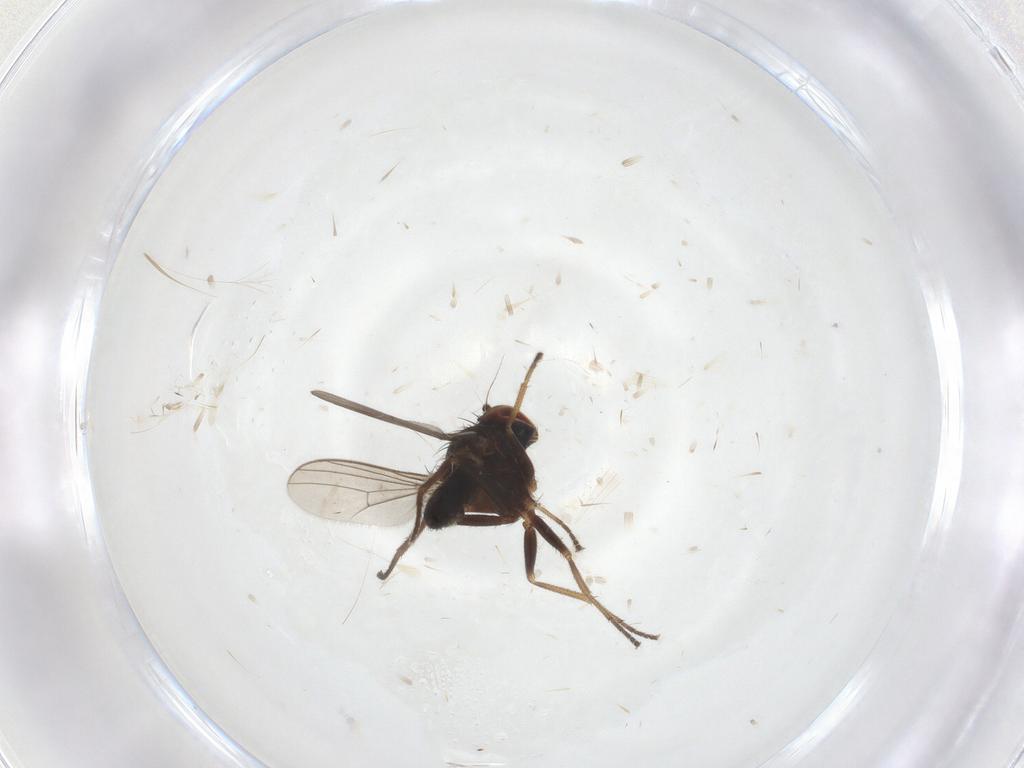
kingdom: Animalia
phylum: Arthropoda
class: Insecta
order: Diptera
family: Dolichopodidae
